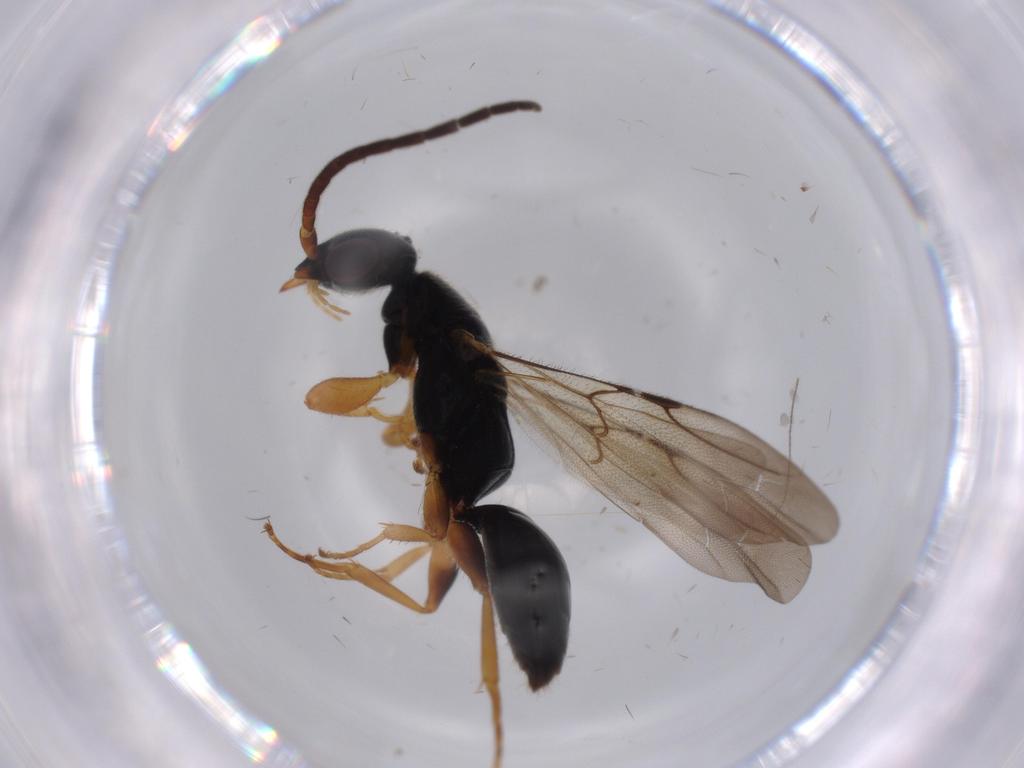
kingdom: Animalia
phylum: Arthropoda
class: Insecta
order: Hymenoptera
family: Bethylidae
